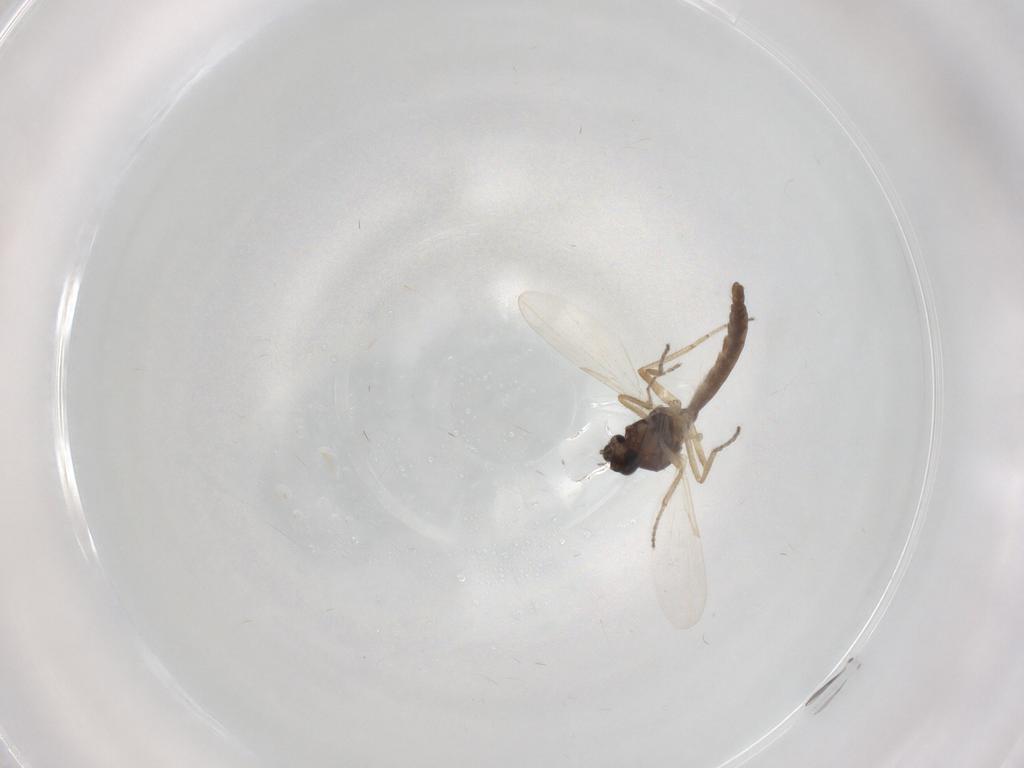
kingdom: Animalia
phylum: Arthropoda
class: Insecta
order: Diptera
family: Ceratopogonidae
